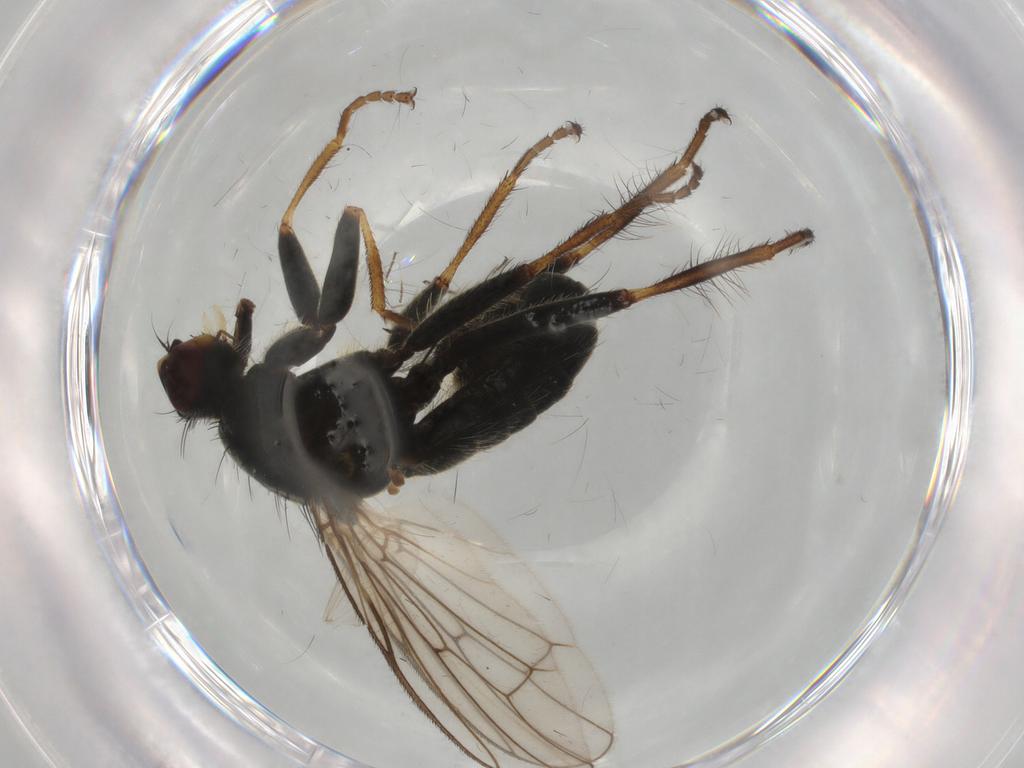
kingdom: Animalia
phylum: Arthropoda
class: Insecta
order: Diptera
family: Scathophagidae
